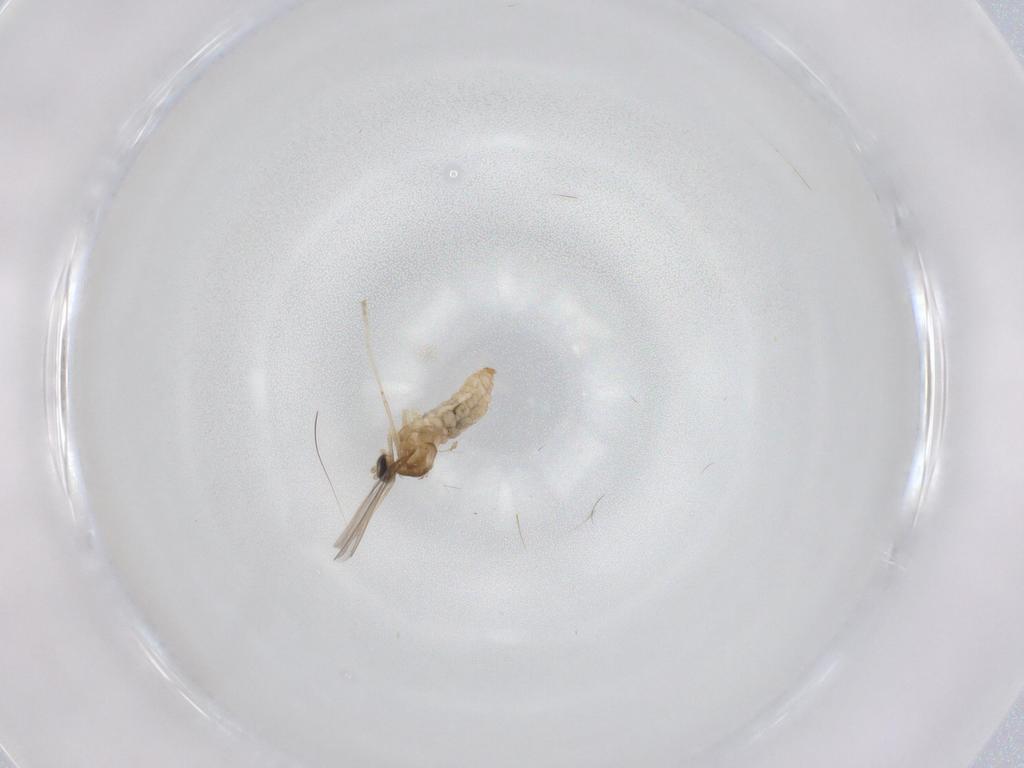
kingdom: Animalia
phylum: Arthropoda
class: Insecta
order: Diptera
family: Cecidomyiidae
